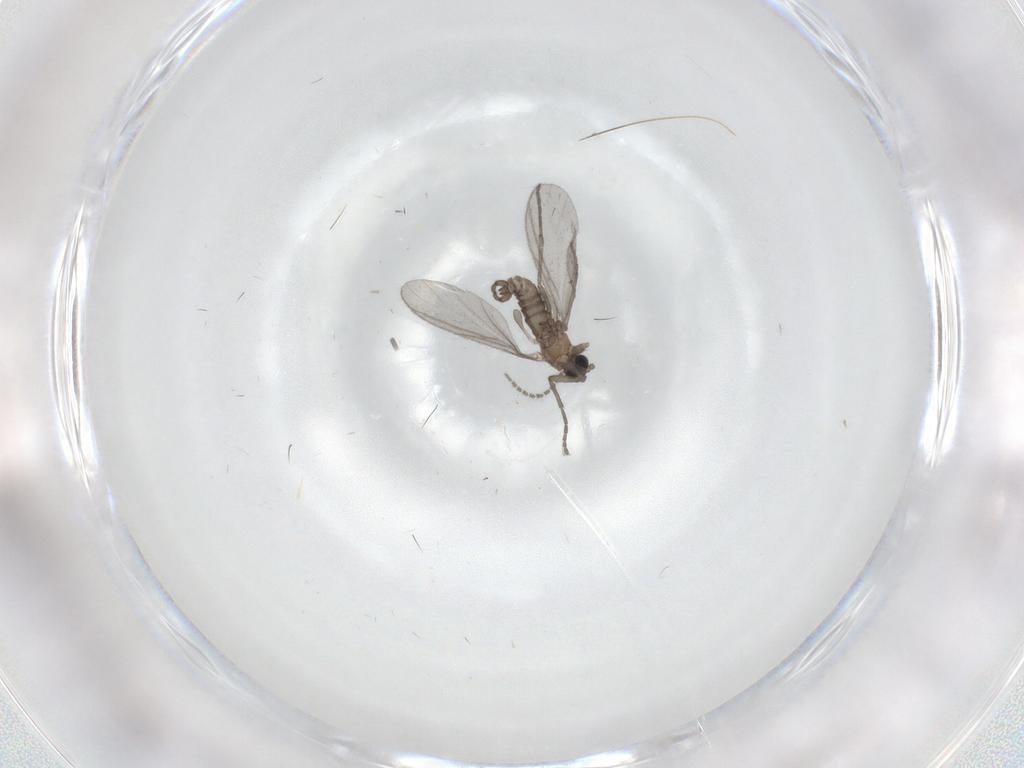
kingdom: Animalia
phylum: Arthropoda
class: Insecta
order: Diptera
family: Sciaridae
